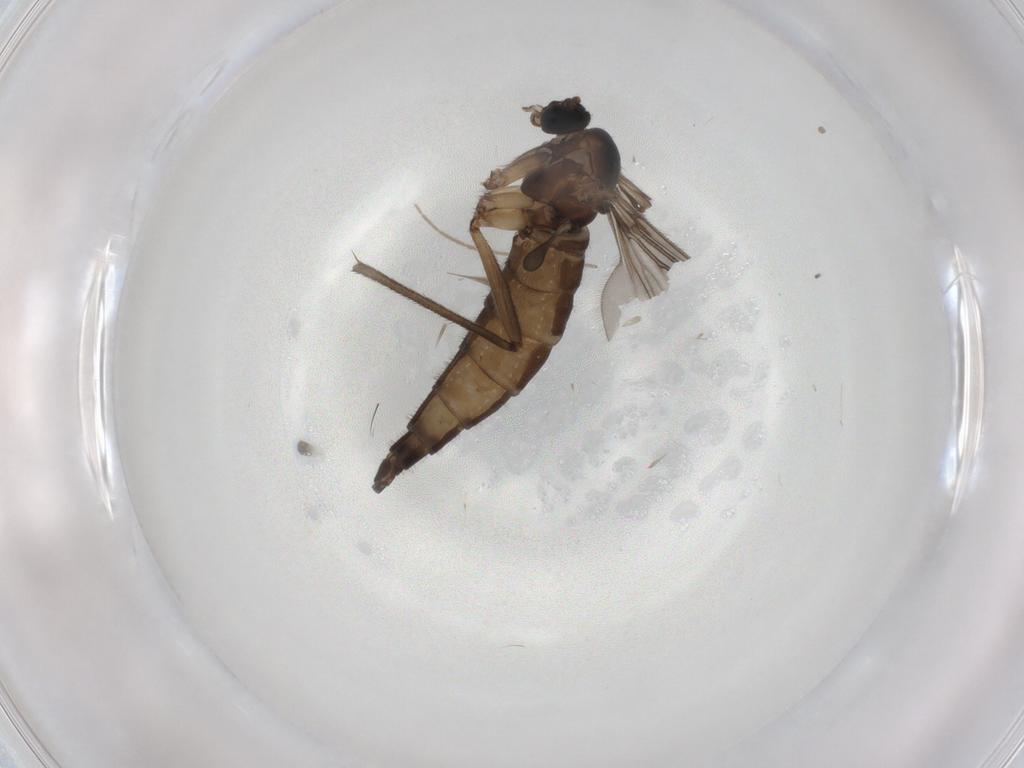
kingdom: Animalia
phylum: Arthropoda
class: Insecta
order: Diptera
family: Sciaridae
